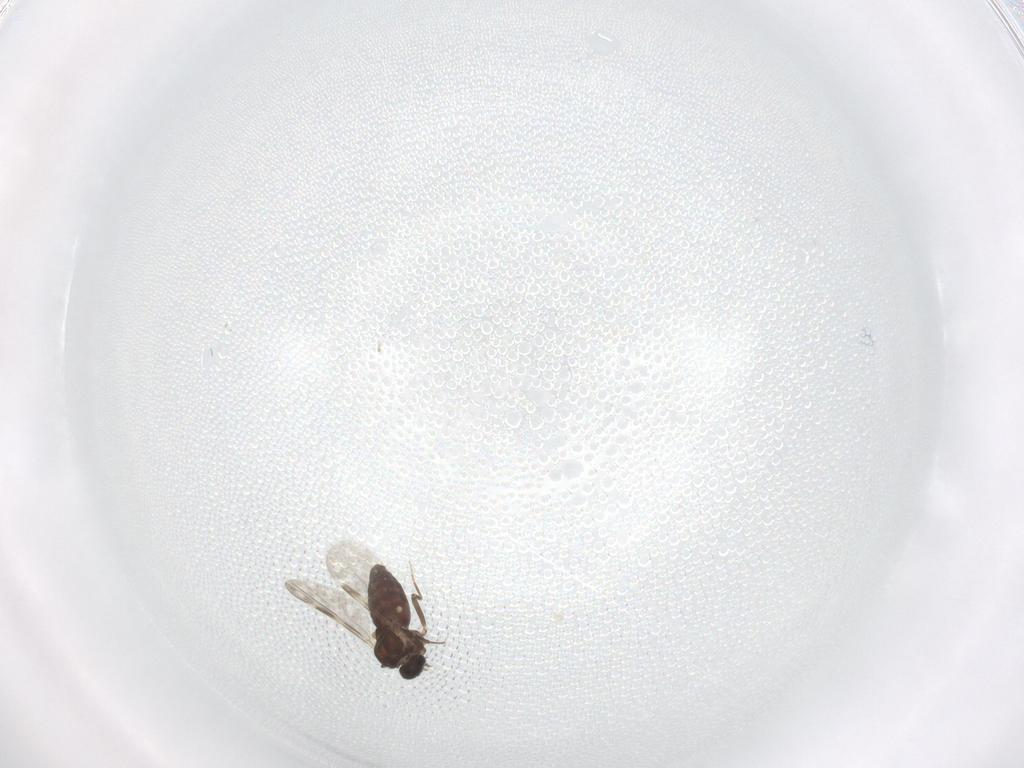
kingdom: Animalia
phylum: Arthropoda
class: Insecta
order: Diptera
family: Ceratopogonidae
